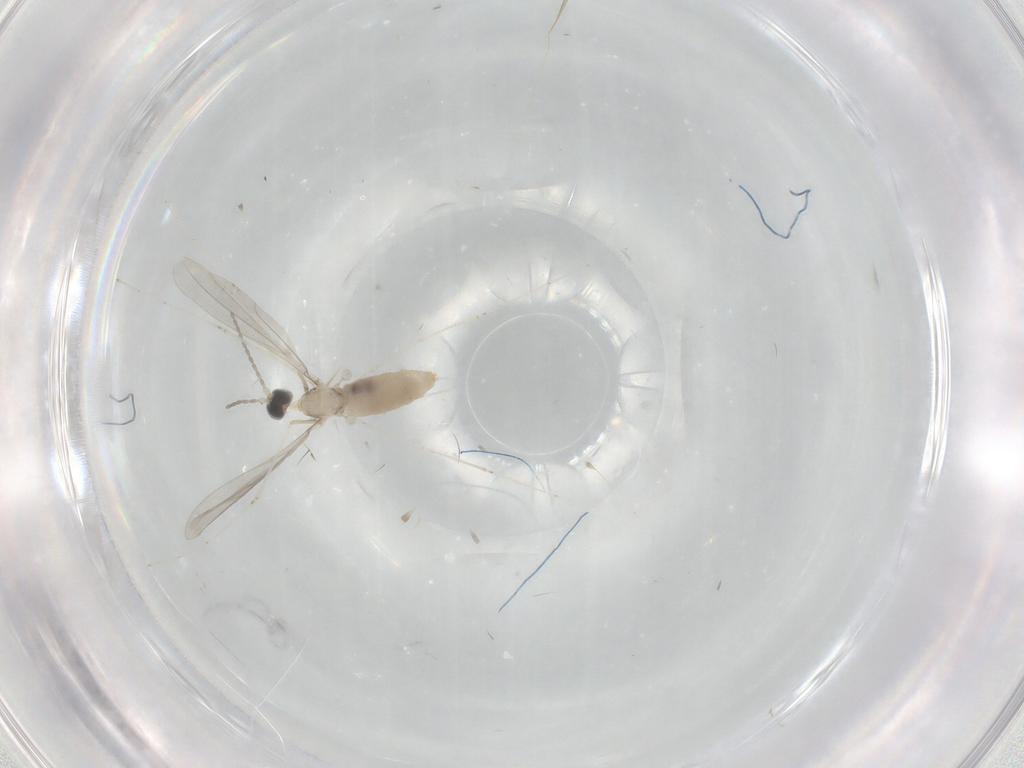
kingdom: Animalia
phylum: Arthropoda
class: Insecta
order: Diptera
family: Cecidomyiidae
